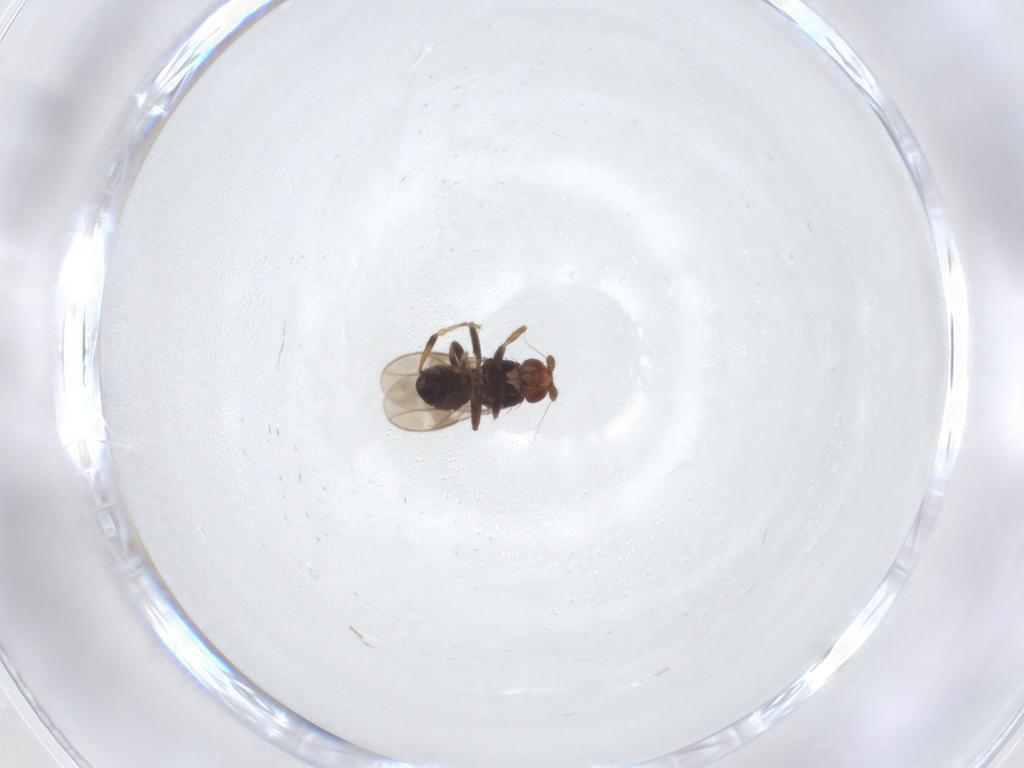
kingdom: Animalia
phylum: Arthropoda
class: Insecta
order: Diptera
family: Sphaeroceridae
